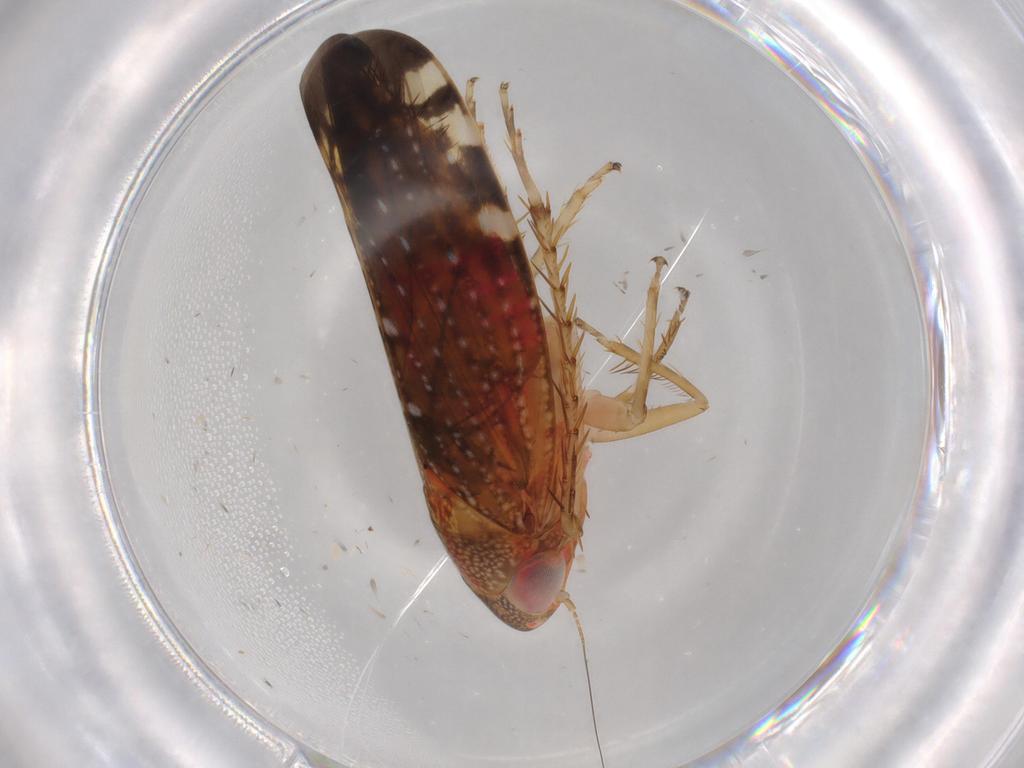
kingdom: Animalia
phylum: Arthropoda
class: Insecta
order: Hemiptera
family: Cicadellidae
